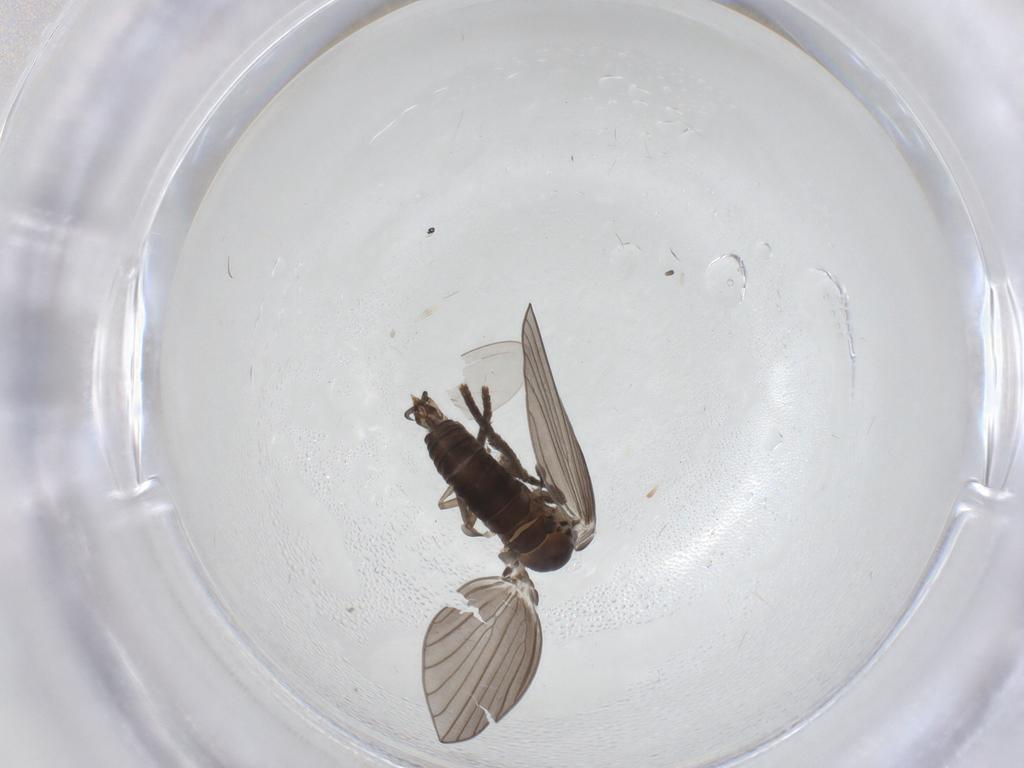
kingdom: Animalia
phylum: Arthropoda
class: Insecta
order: Diptera
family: Psychodidae
